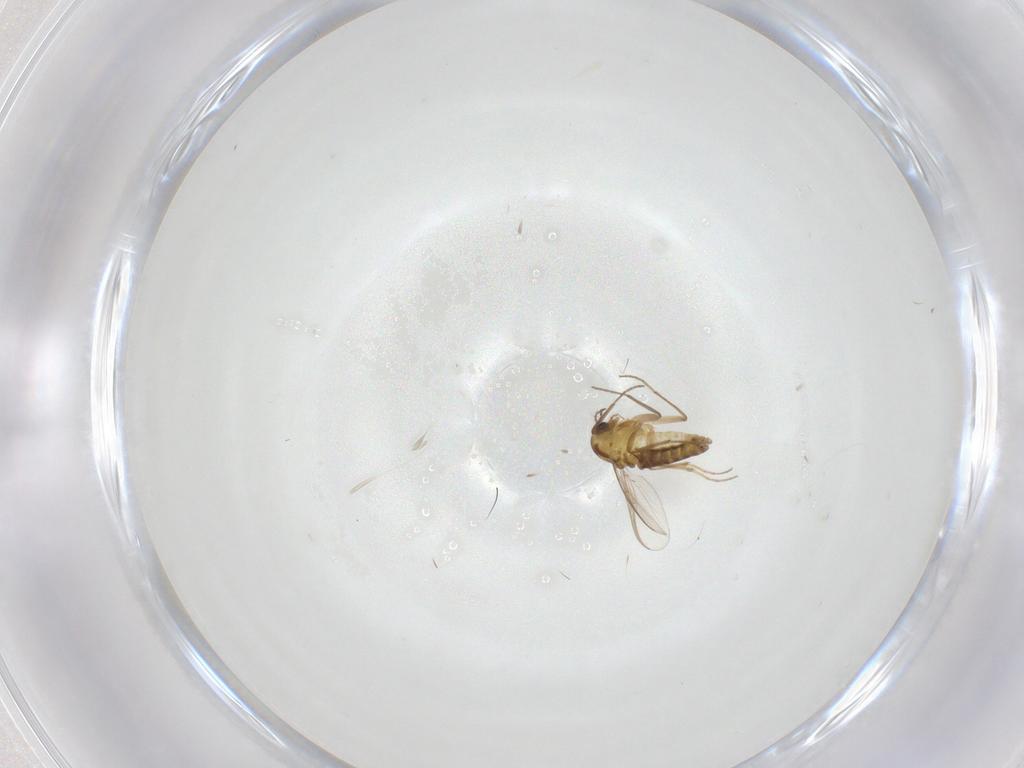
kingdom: Animalia
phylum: Arthropoda
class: Insecta
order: Diptera
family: Chironomidae
